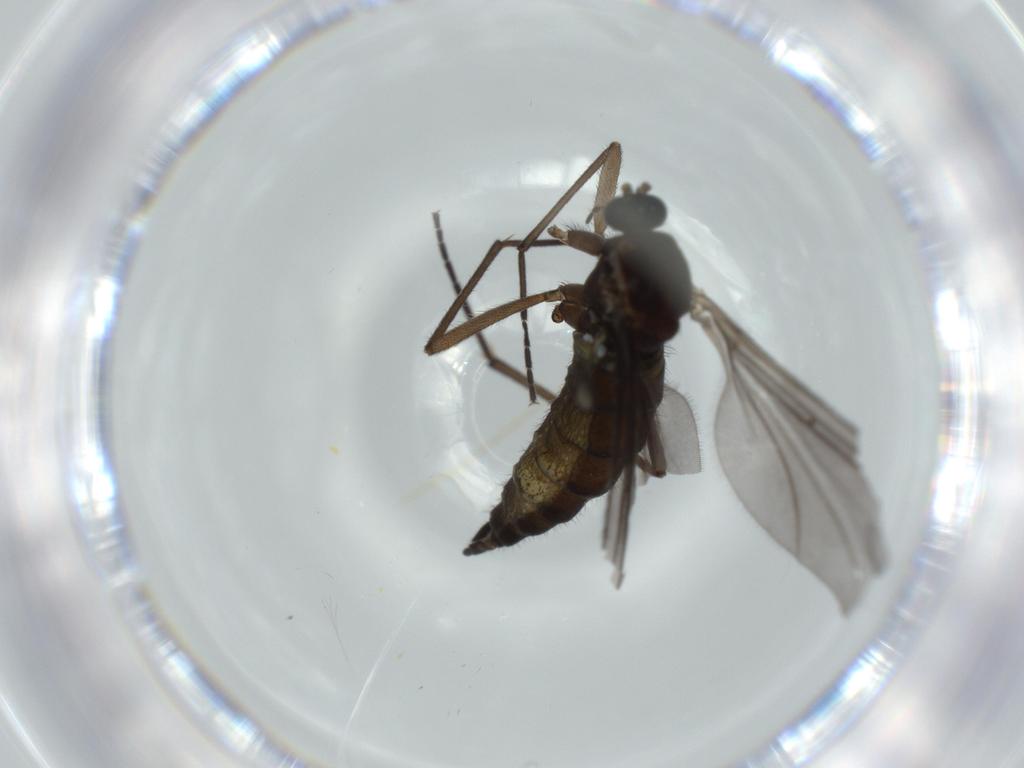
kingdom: Animalia
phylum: Arthropoda
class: Insecta
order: Diptera
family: Sciaridae
